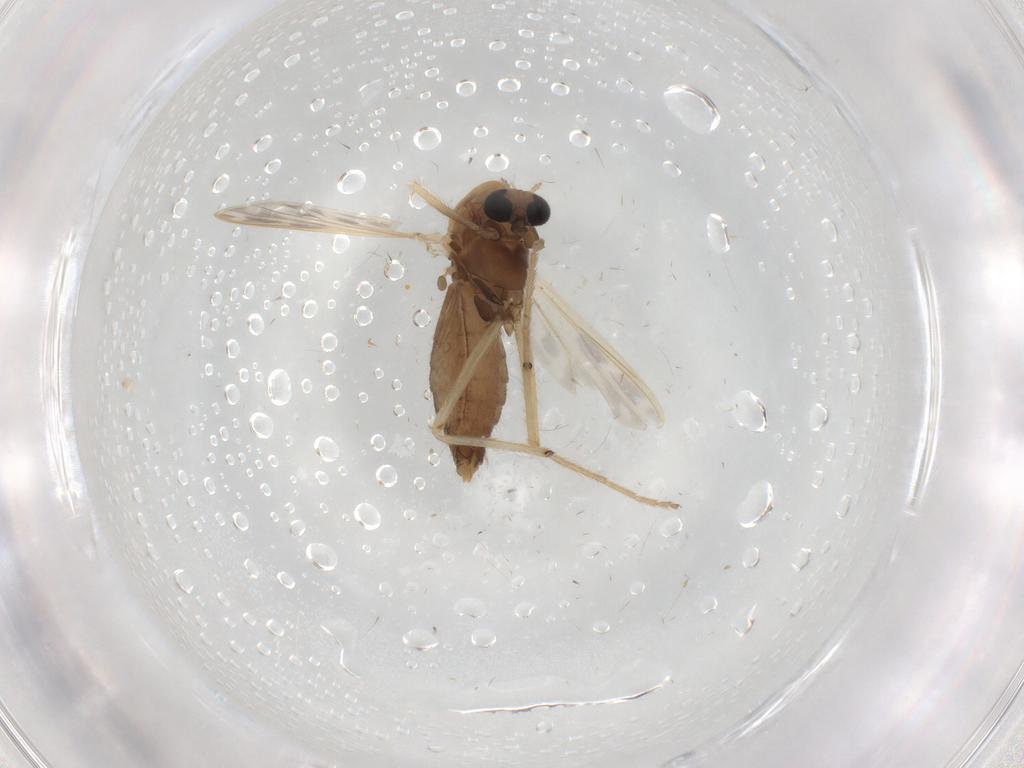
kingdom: Animalia
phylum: Arthropoda
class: Insecta
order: Diptera
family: Chironomidae
